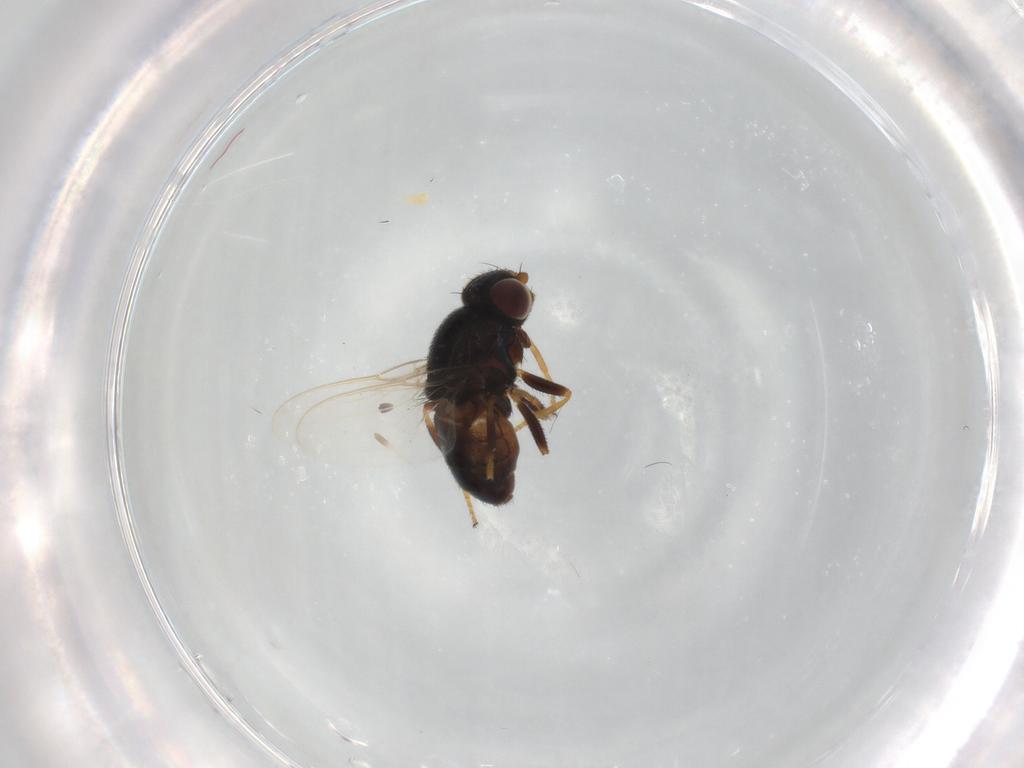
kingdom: Animalia
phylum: Arthropoda
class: Insecta
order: Diptera
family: Chloropidae
